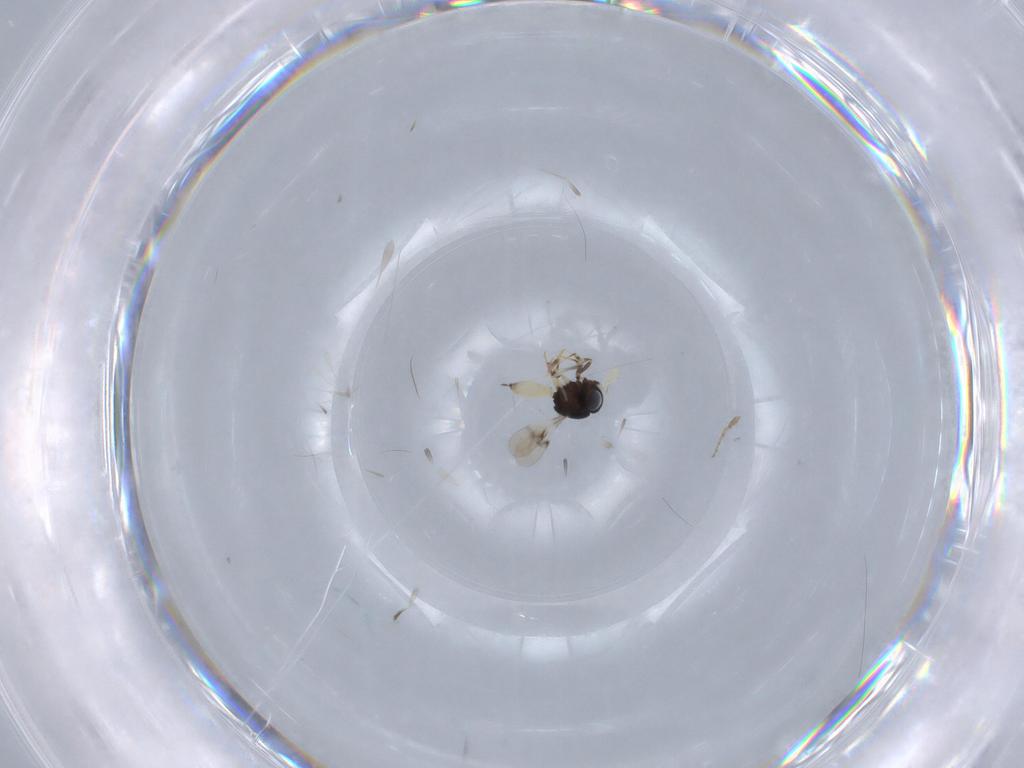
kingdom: Animalia
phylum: Arthropoda
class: Insecta
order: Hymenoptera
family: Scelionidae
